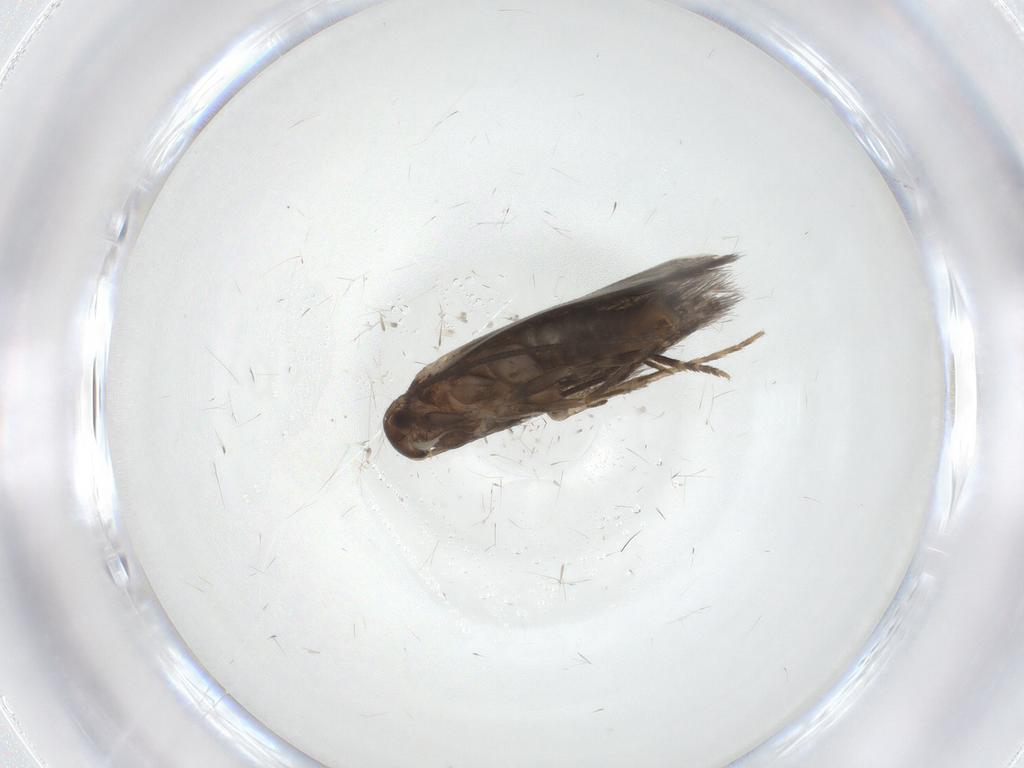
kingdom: Animalia
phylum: Arthropoda
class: Insecta
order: Lepidoptera
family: Elachistidae
